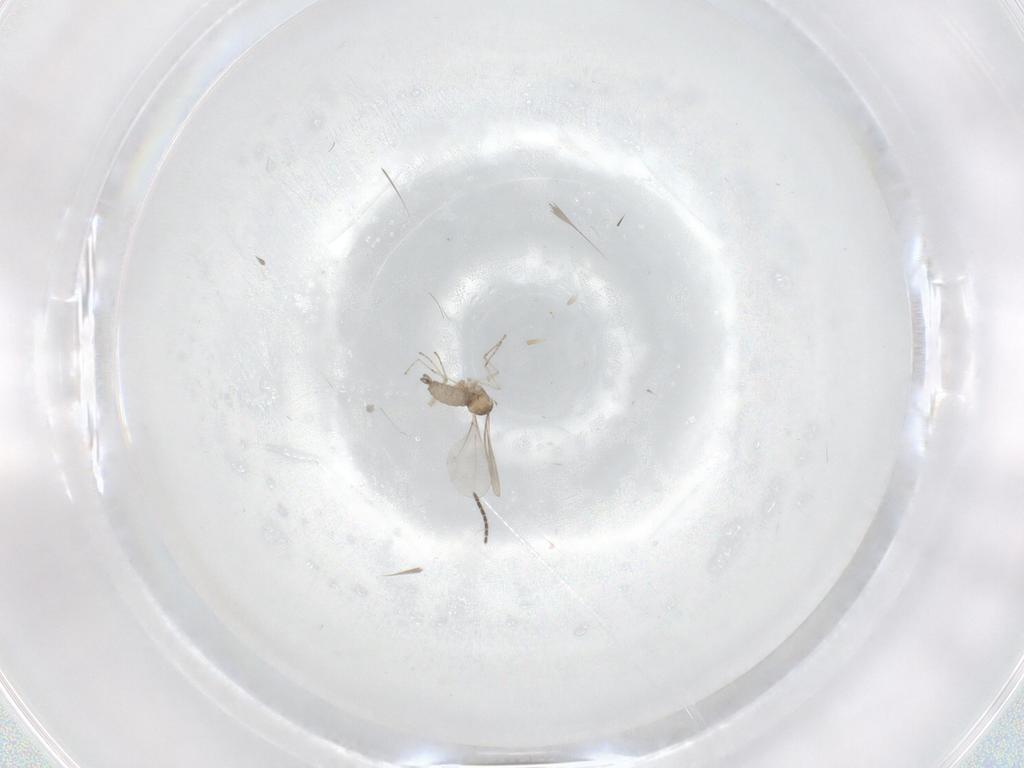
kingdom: Animalia
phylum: Arthropoda
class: Insecta
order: Diptera
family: Cecidomyiidae
